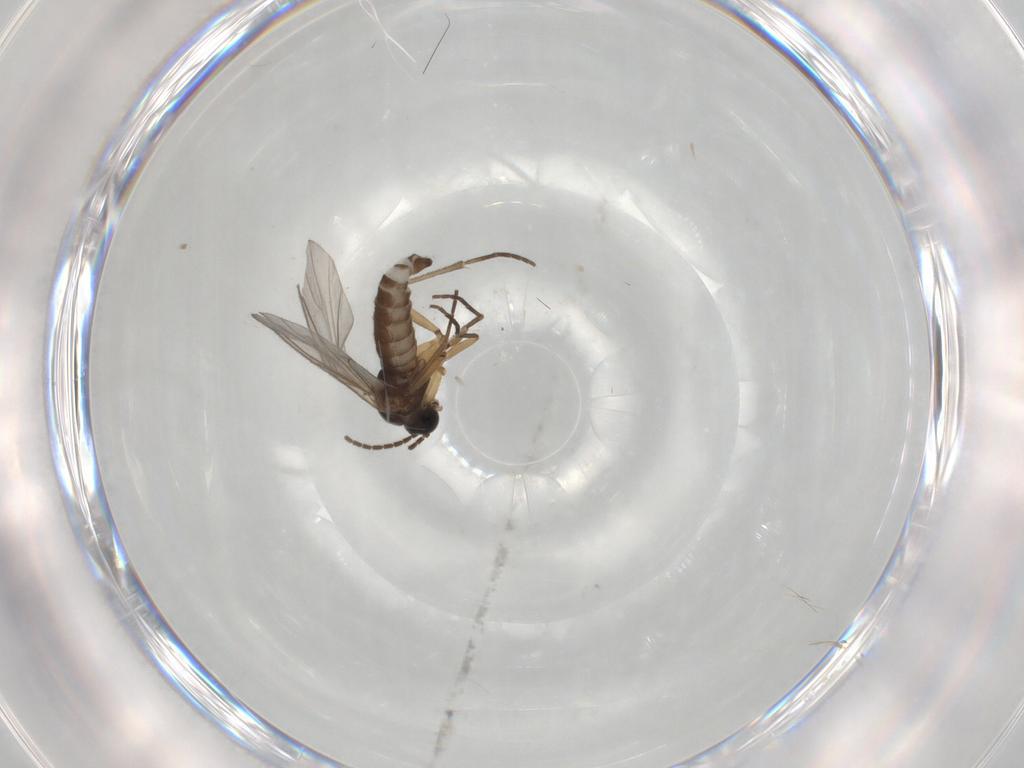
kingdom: Animalia
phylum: Arthropoda
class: Insecta
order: Diptera
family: Sciaridae
